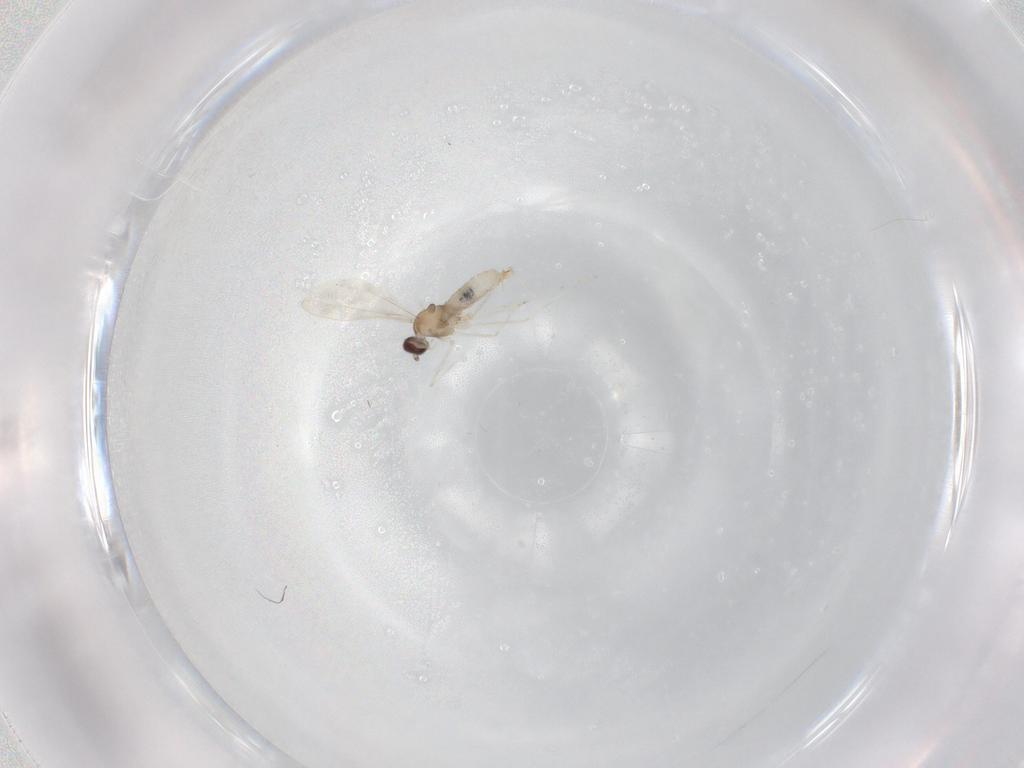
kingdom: Animalia
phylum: Arthropoda
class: Insecta
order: Diptera
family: Cecidomyiidae
